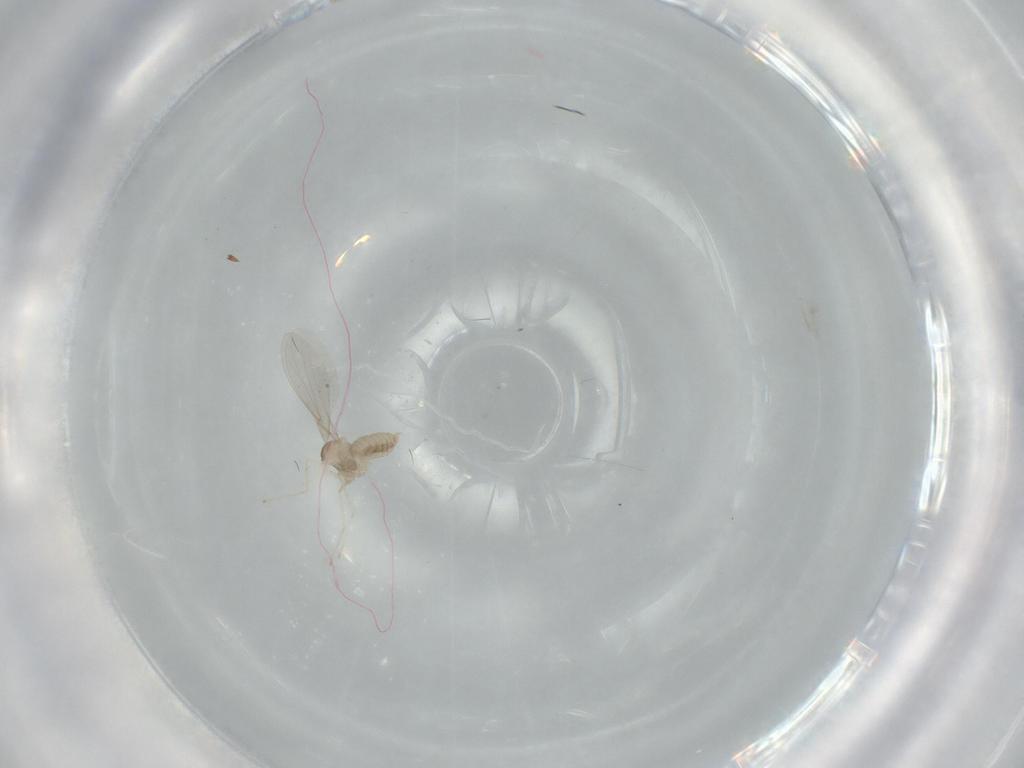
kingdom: Animalia
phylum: Arthropoda
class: Insecta
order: Diptera
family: Cecidomyiidae
